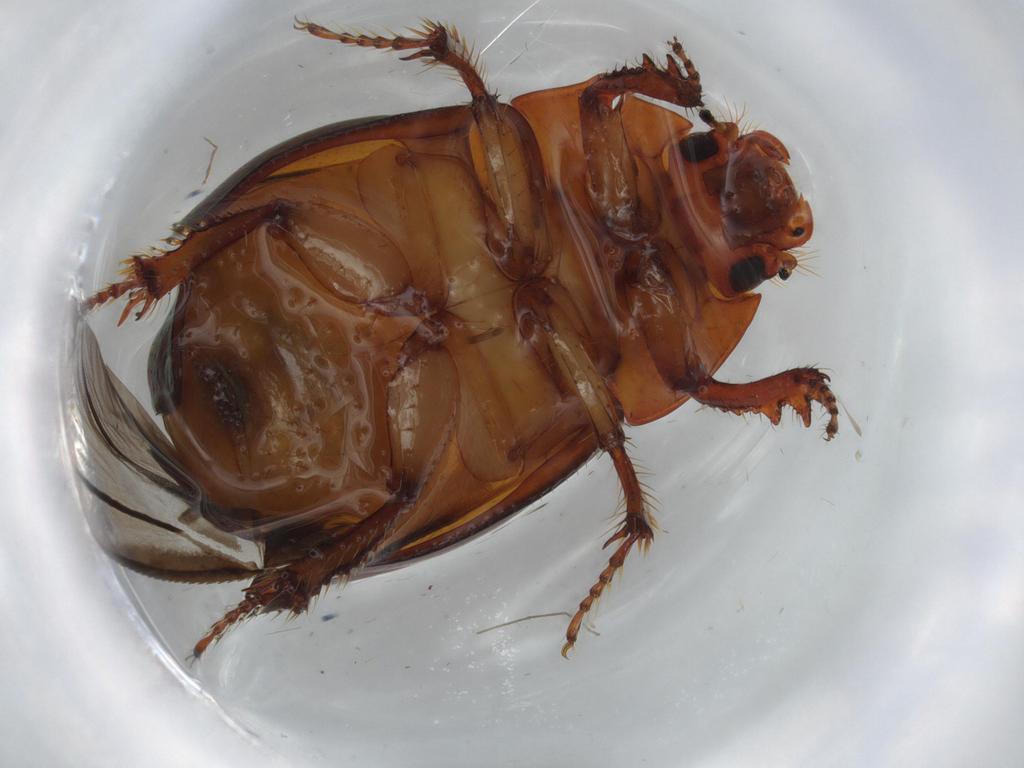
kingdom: Animalia
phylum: Arthropoda
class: Insecta
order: Coleoptera
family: Hybosoridae
